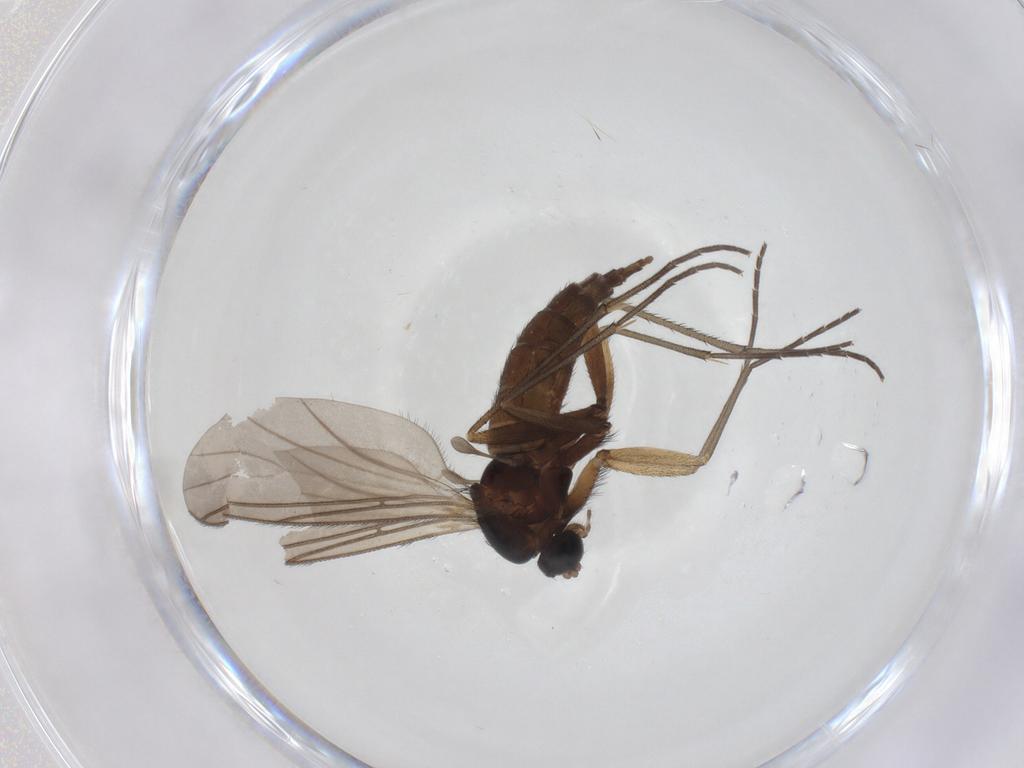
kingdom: Animalia
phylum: Arthropoda
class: Insecta
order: Diptera
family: Sciaridae
